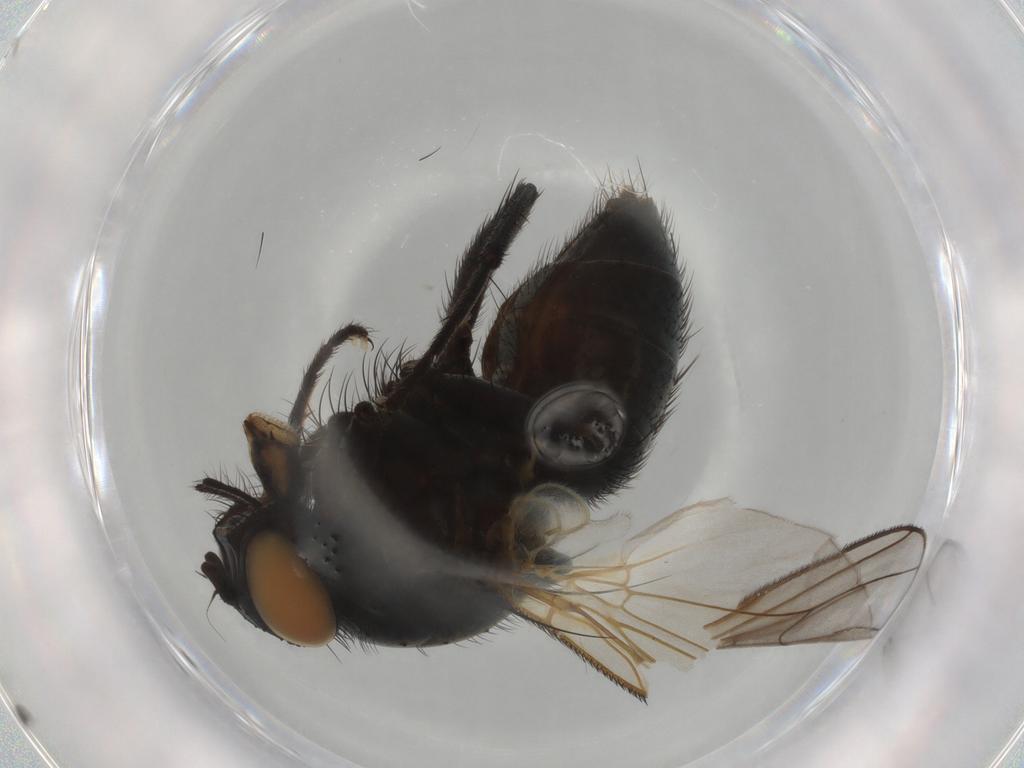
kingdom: Animalia
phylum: Arthropoda
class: Insecta
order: Diptera
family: Muscidae
